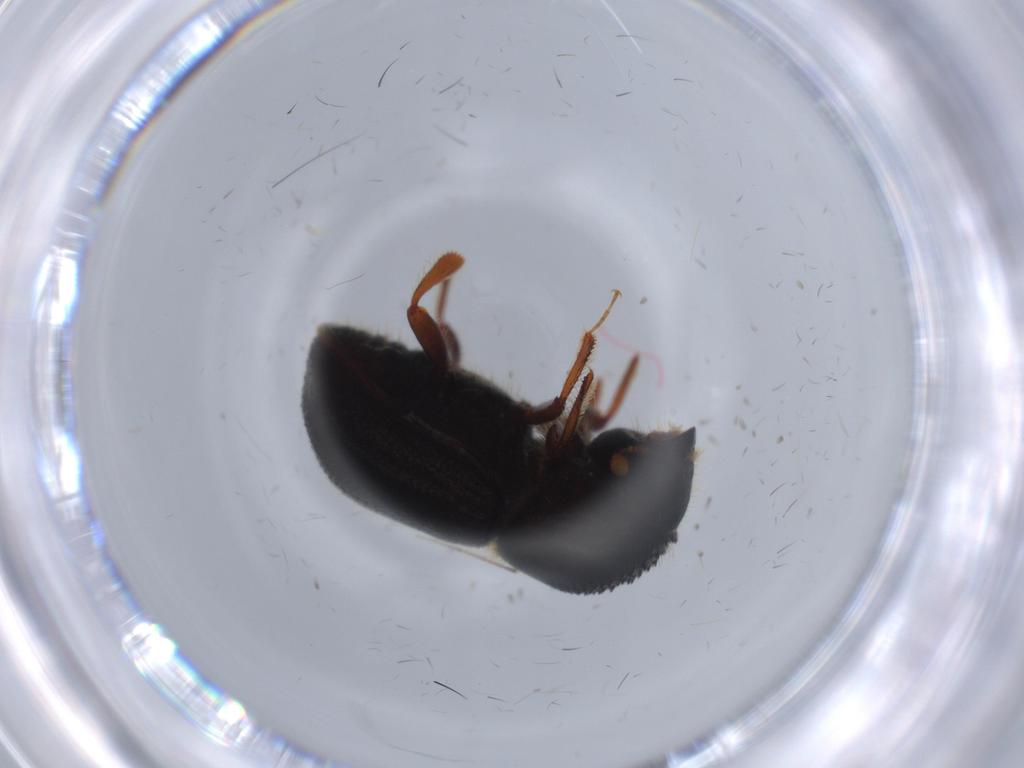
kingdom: Animalia
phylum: Arthropoda
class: Insecta
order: Coleoptera
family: Curculionidae
